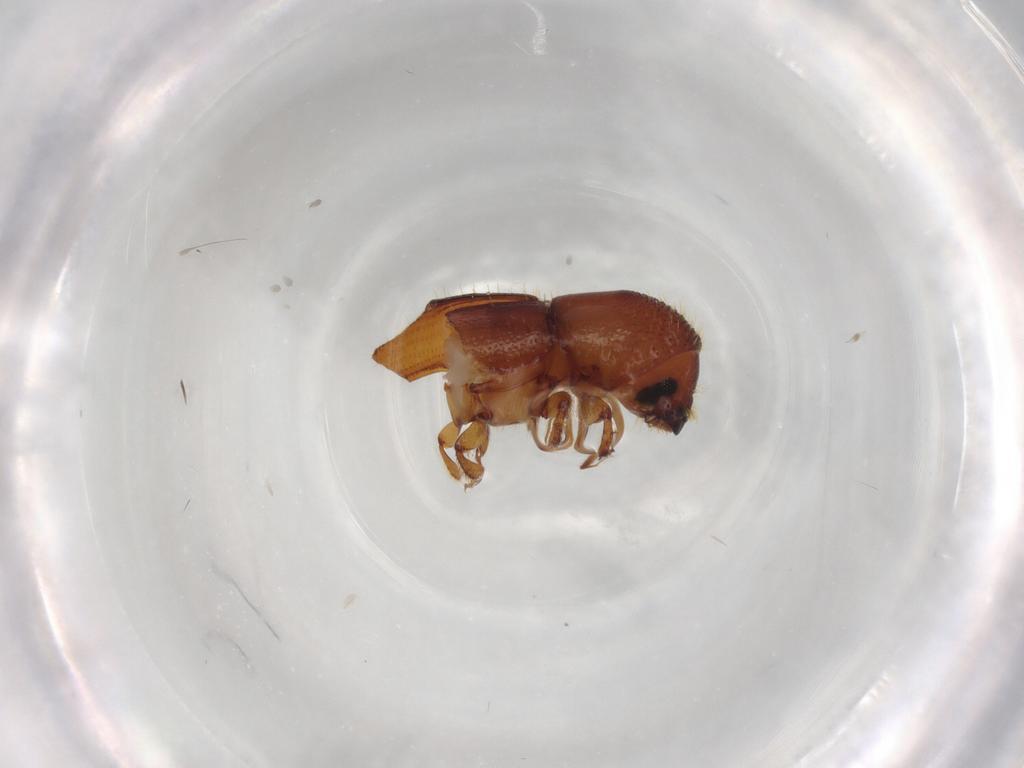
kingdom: Animalia
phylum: Arthropoda
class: Insecta
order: Coleoptera
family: Curculionidae
